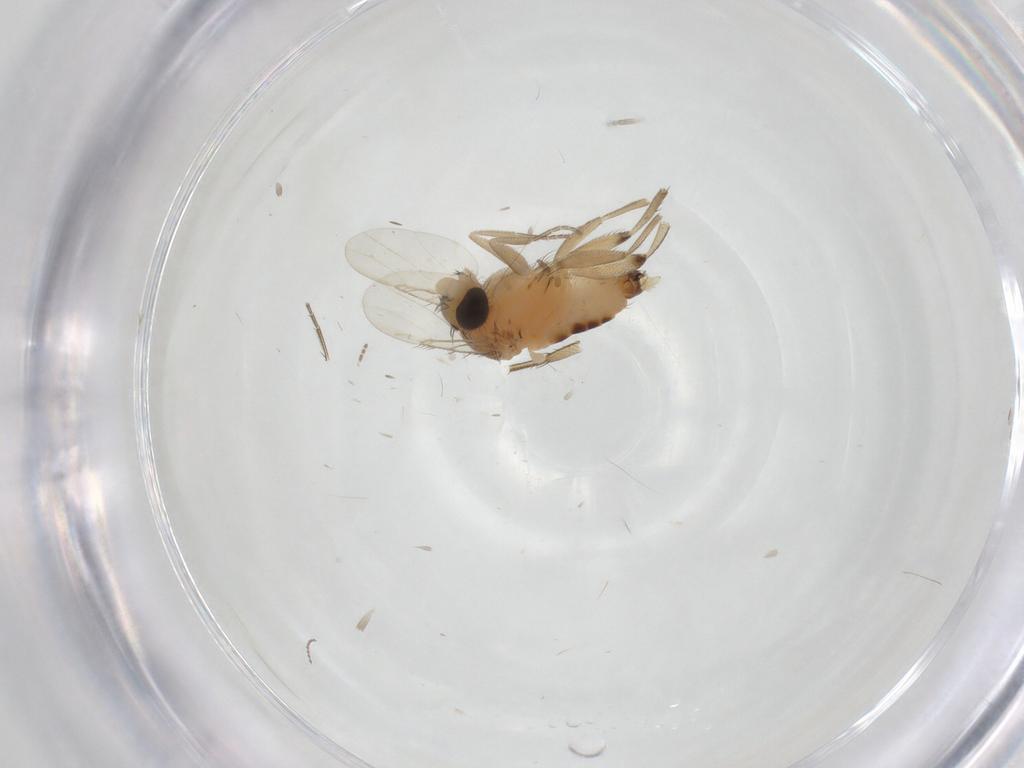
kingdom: Animalia
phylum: Arthropoda
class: Insecta
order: Diptera
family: Phoridae
